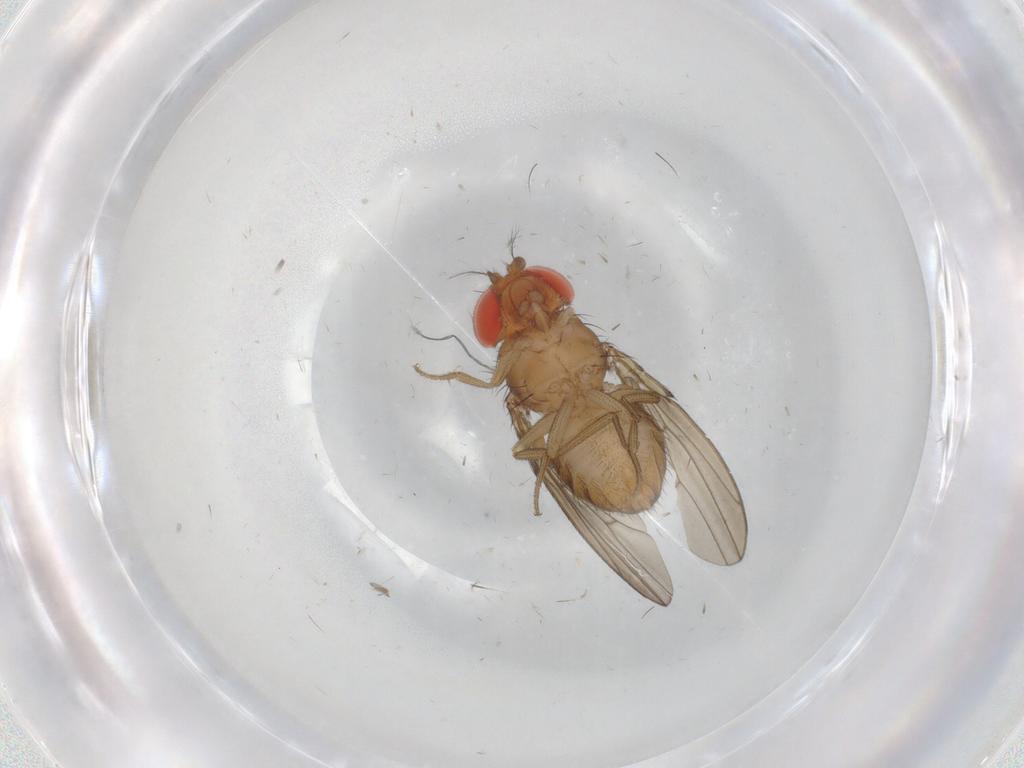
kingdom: Animalia
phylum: Arthropoda
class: Insecta
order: Diptera
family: Drosophilidae
